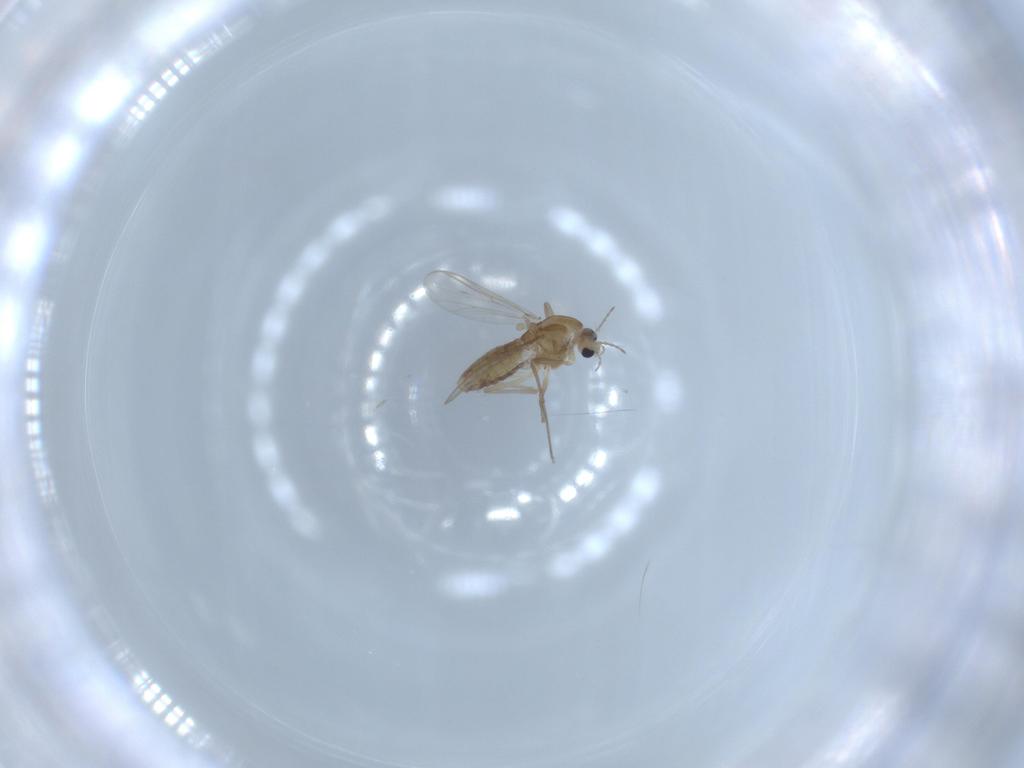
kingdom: Animalia
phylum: Arthropoda
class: Insecta
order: Diptera
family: Chironomidae
